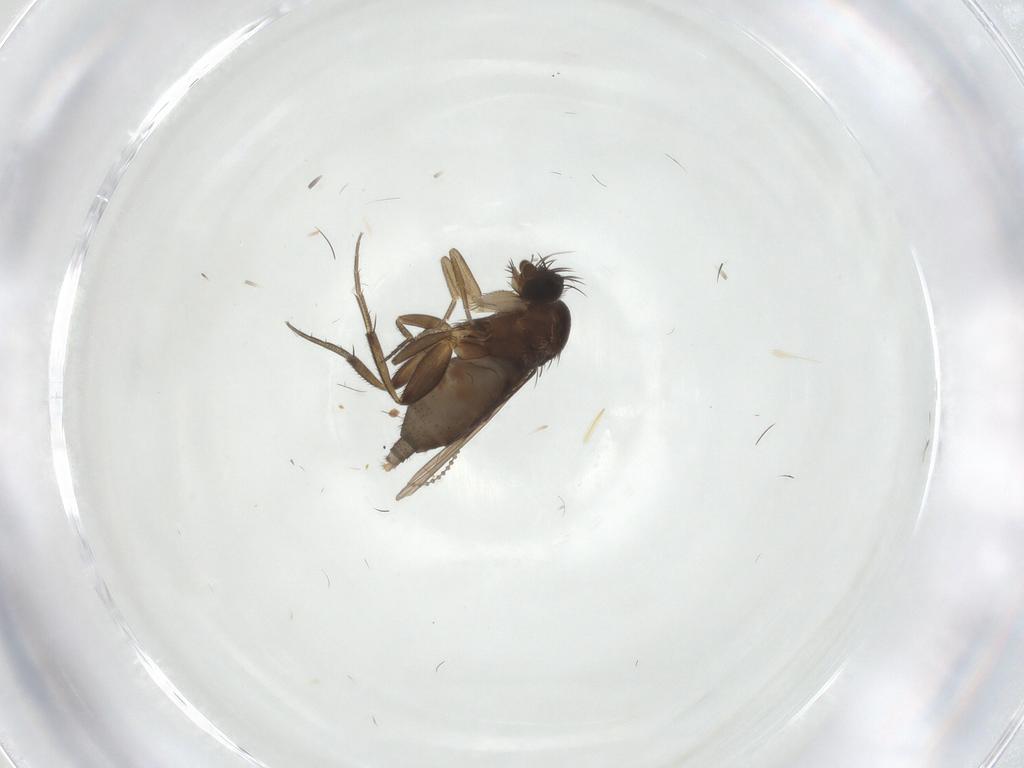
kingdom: Animalia
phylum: Arthropoda
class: Insecta
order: Diptera
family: Phoridae
